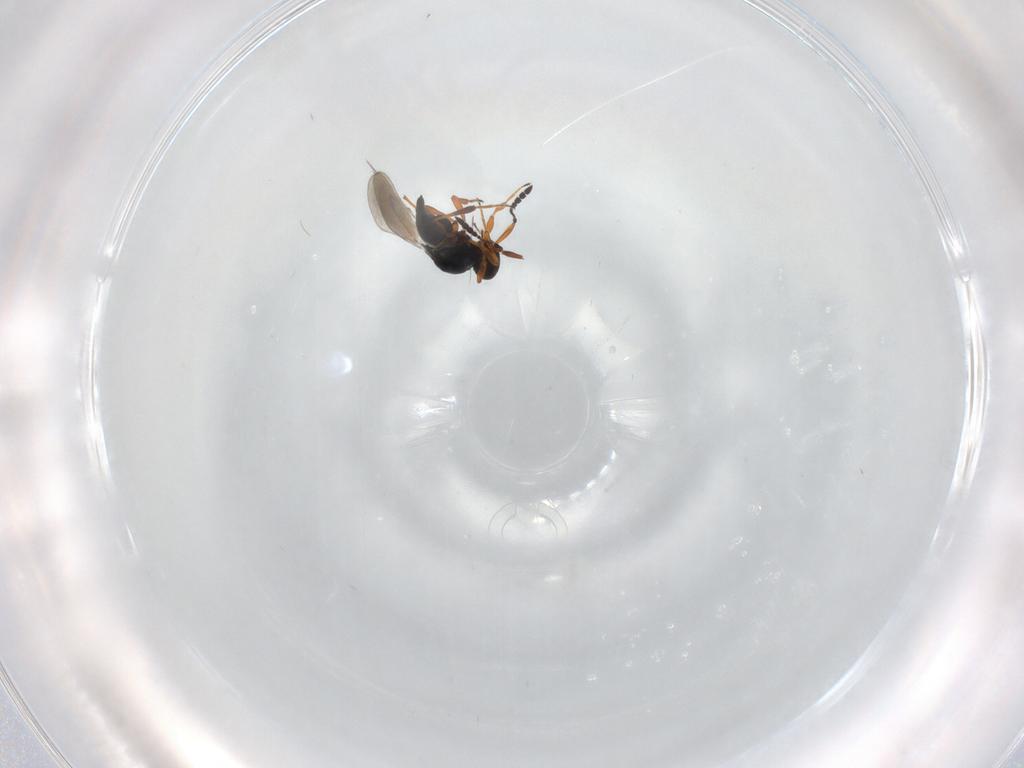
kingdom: Animalia
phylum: Arthropoda
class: Insecta
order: Hymenoptera
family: Platygastridae
